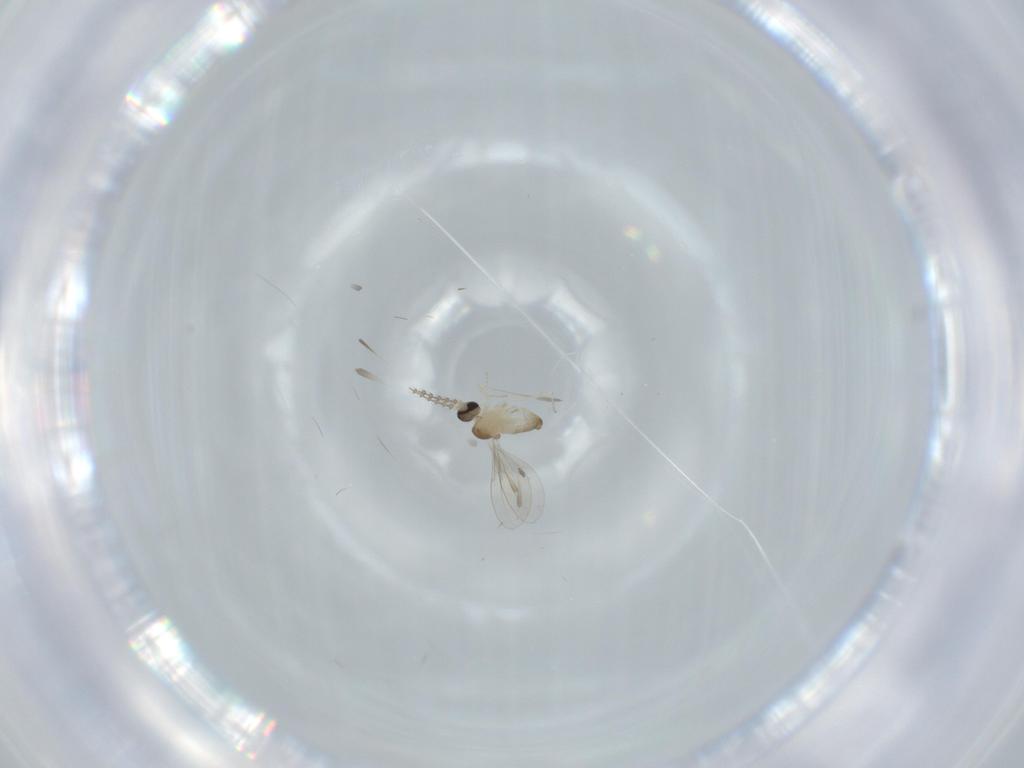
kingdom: Animalia
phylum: Arthropoda
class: Insecta
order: Diptera
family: Cecidomyiidae
